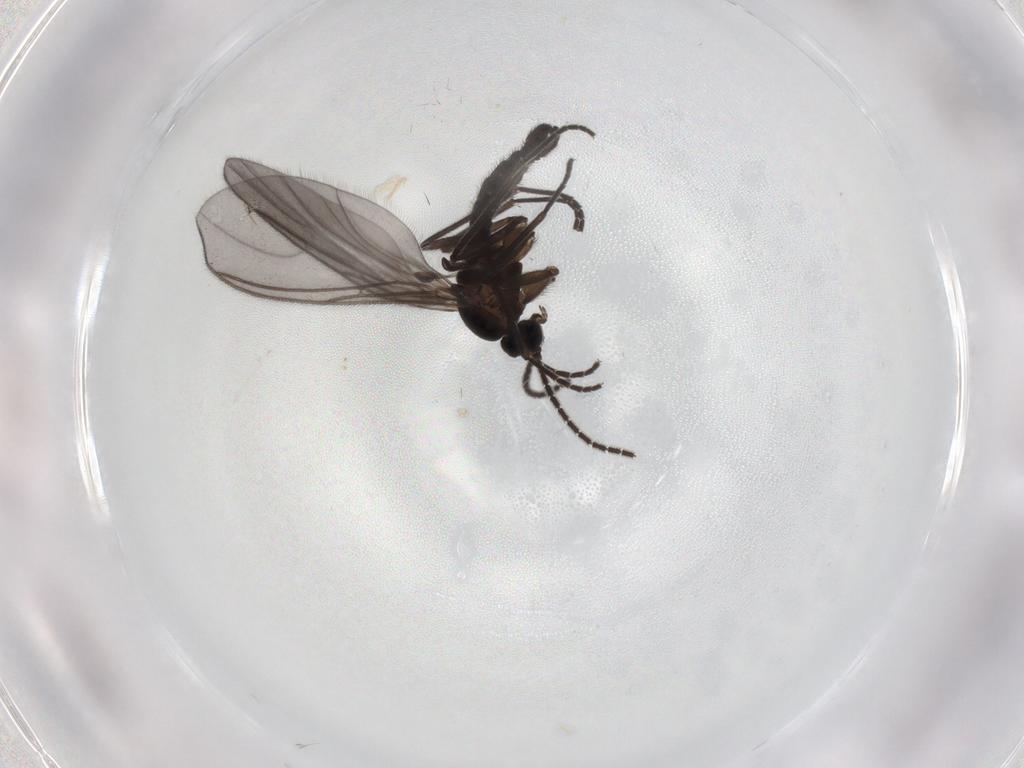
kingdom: Animalia
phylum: Arthropoda
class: Insecta
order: Diptera
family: Sciaridae
